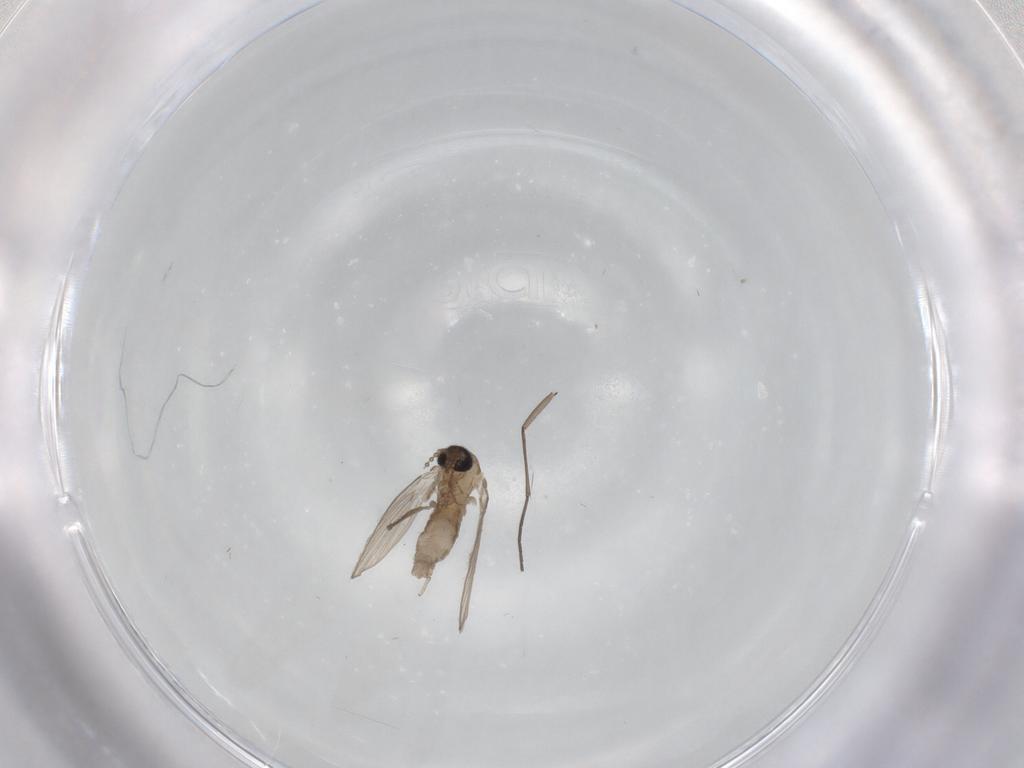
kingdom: Animalia
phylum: Arthropoda
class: Insecta
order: Diptera
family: Psychodidae
